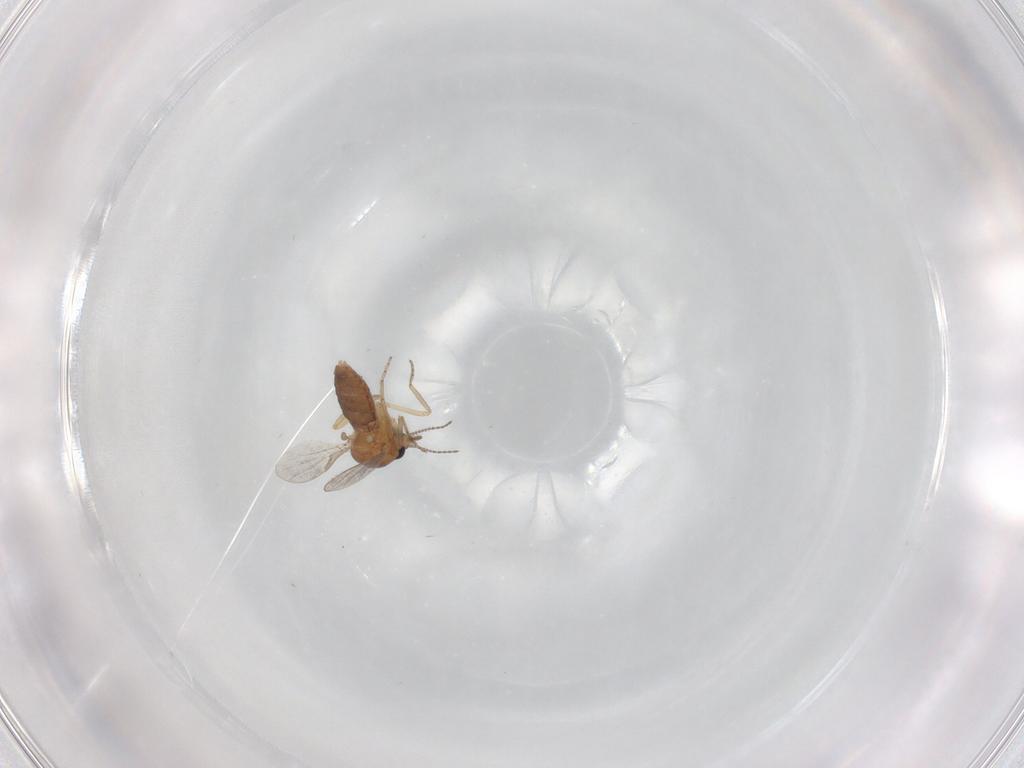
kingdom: Animalia
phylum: Arthropoda
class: Insecta
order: Diptera
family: Ceratopogonidae
